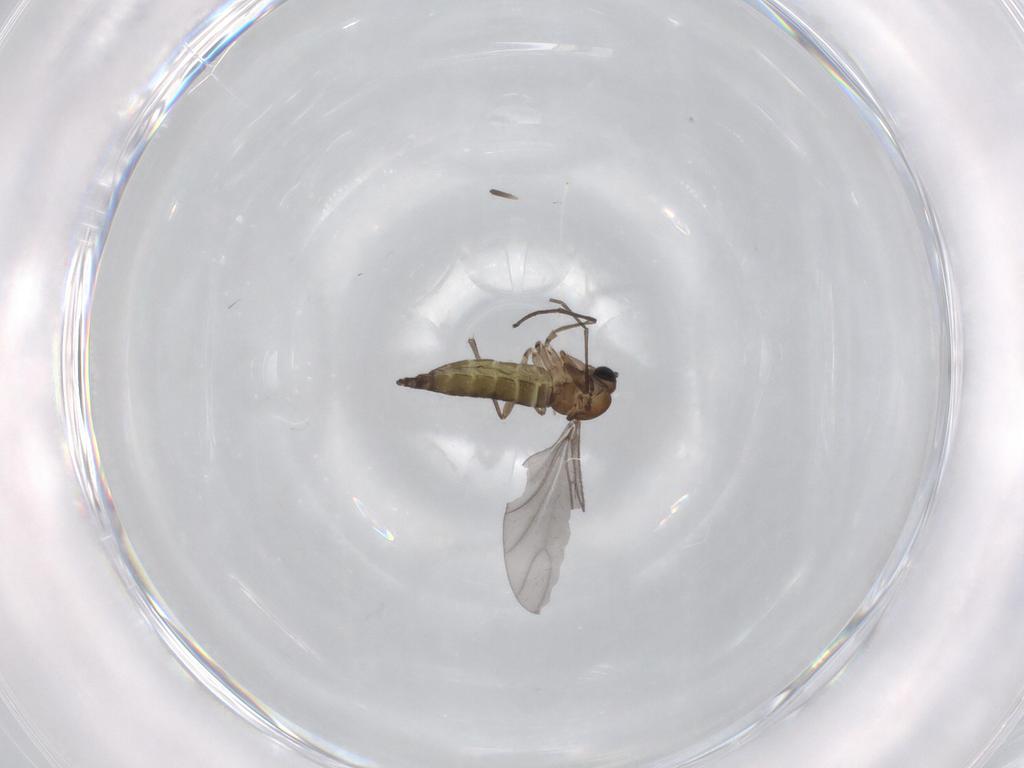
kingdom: Animalia
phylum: Arthropoda
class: Insecta
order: Diptera
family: Sciaridae
